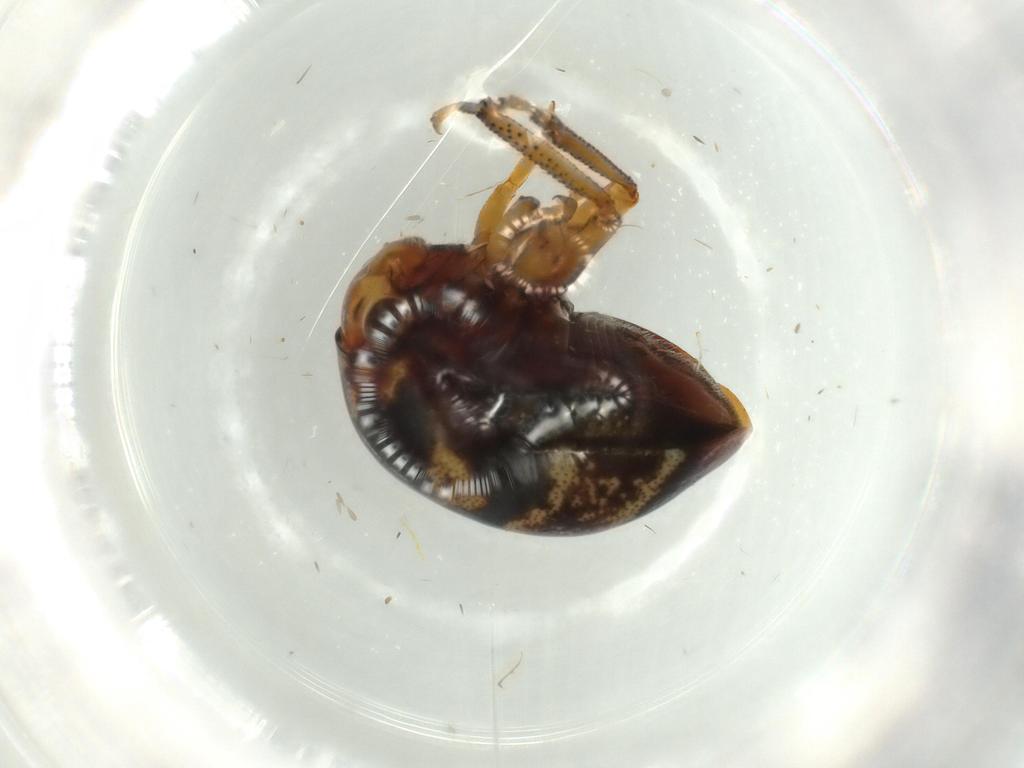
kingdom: Animalia
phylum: Arthropoda
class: Insecta
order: Hemiptera
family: Membracidae
